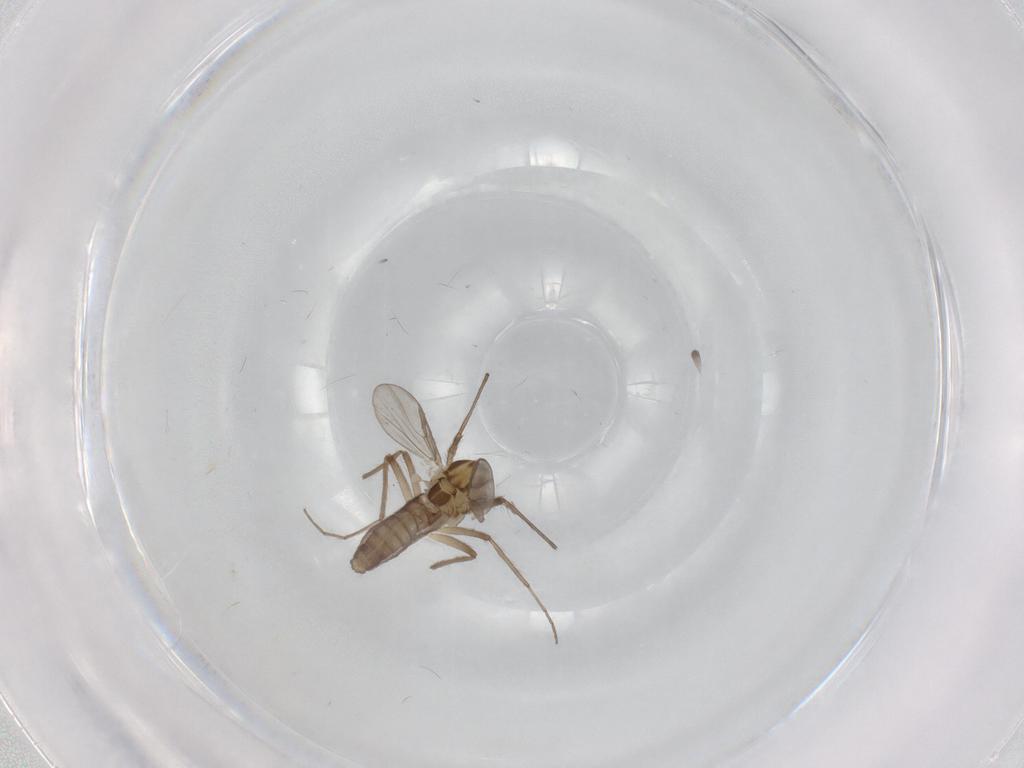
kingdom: Animalia
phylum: Arthropoda
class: Insecta
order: Diptera
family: Chironomidae
